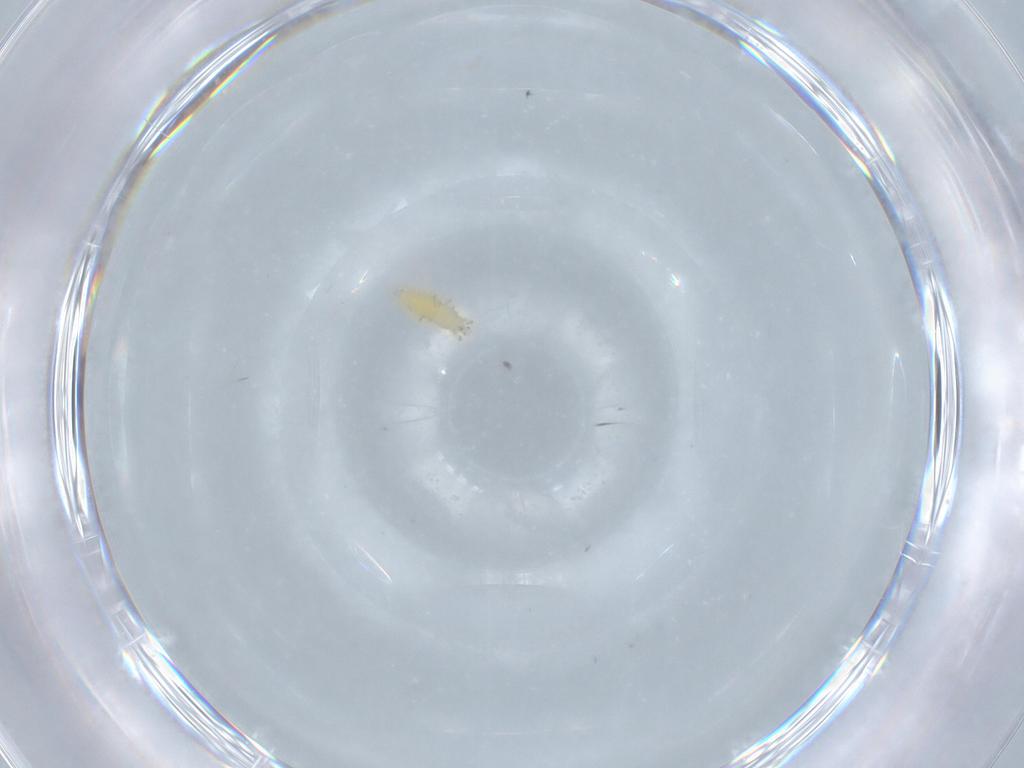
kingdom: Animalia
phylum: Arthropoda
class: Insecta
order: Thysanoptera
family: Thripidae
